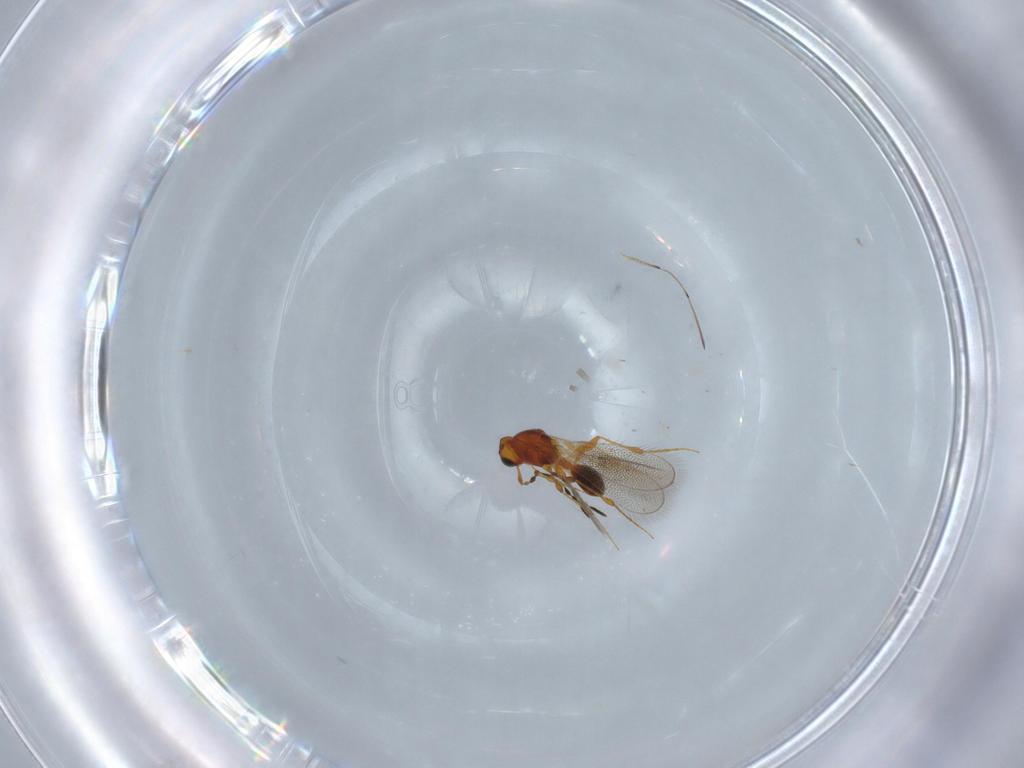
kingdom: Animalia
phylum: Arthropoda
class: Insecta
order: Hymenoptera
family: Platygastridae
